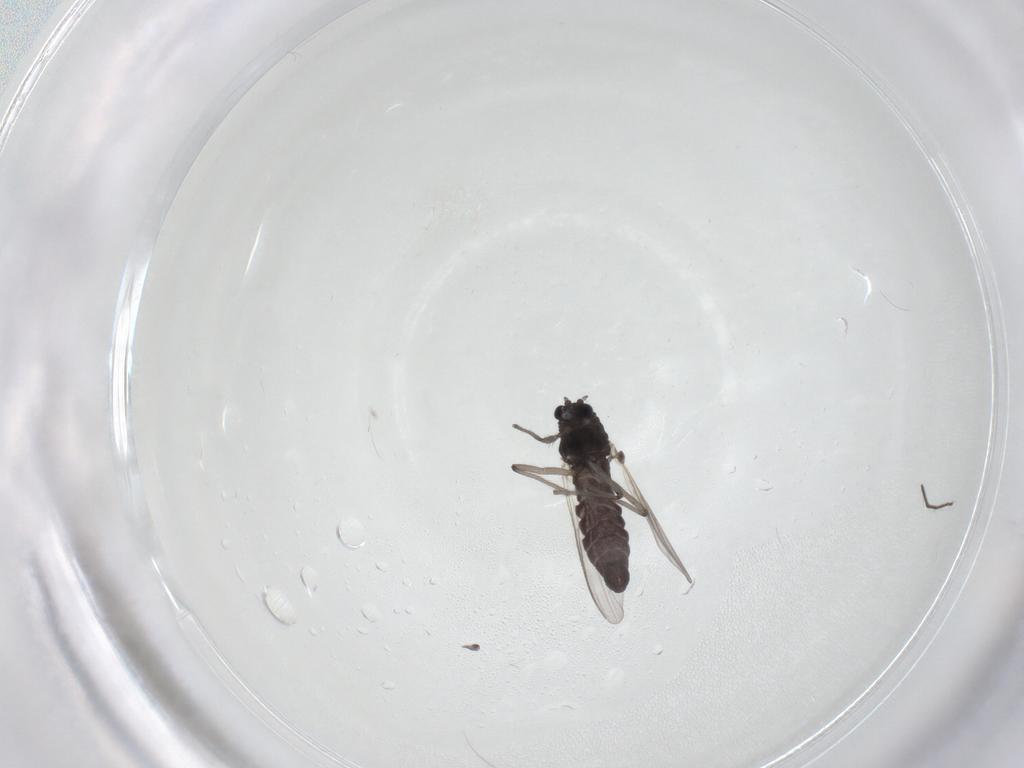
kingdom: Animalia
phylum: Arthropoda
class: Insecta
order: Diptera
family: Chironomidae
